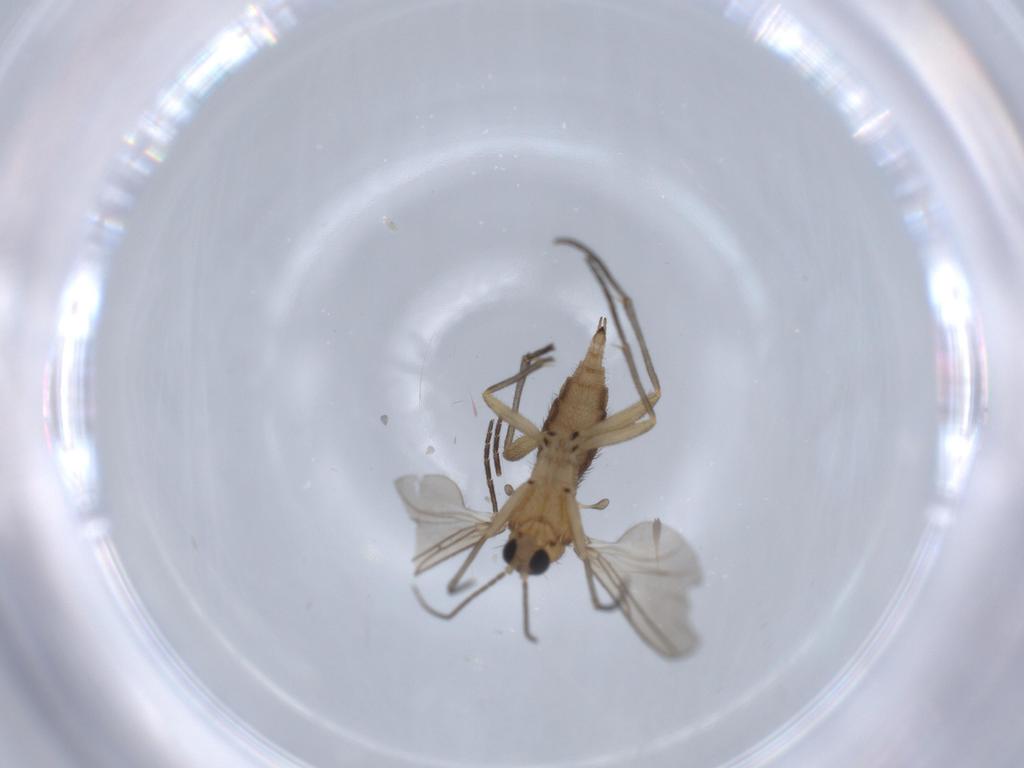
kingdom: Animalia
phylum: Arthropoda
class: Insecta
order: Diptera
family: Sciaridae
